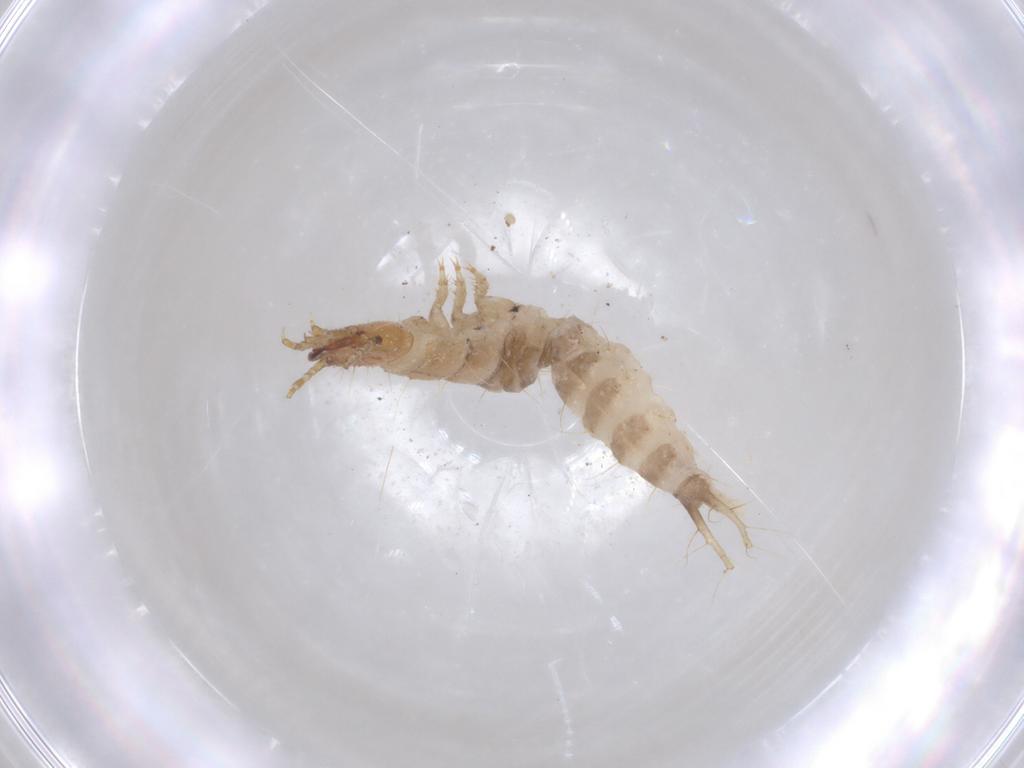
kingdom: Animalia
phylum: Arthropoda
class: Insecta
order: Coleoptera
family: Carabidae
